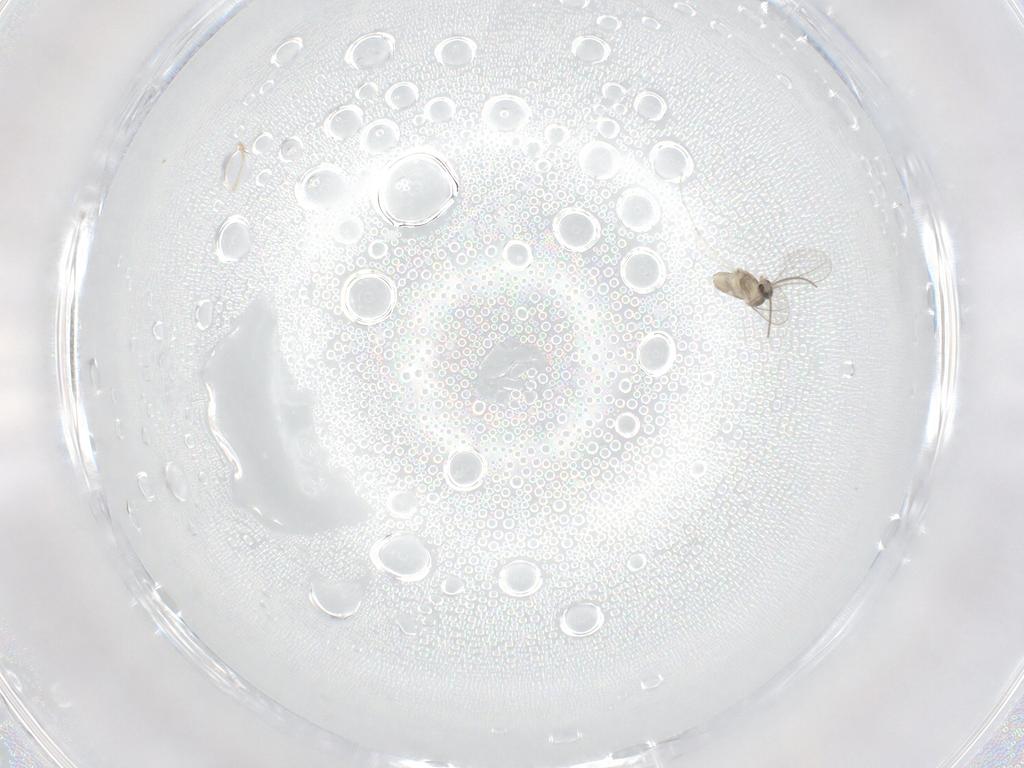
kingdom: Animalia
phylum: Arthropoda
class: Insecta
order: Diptera
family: Cecidomyiidae
